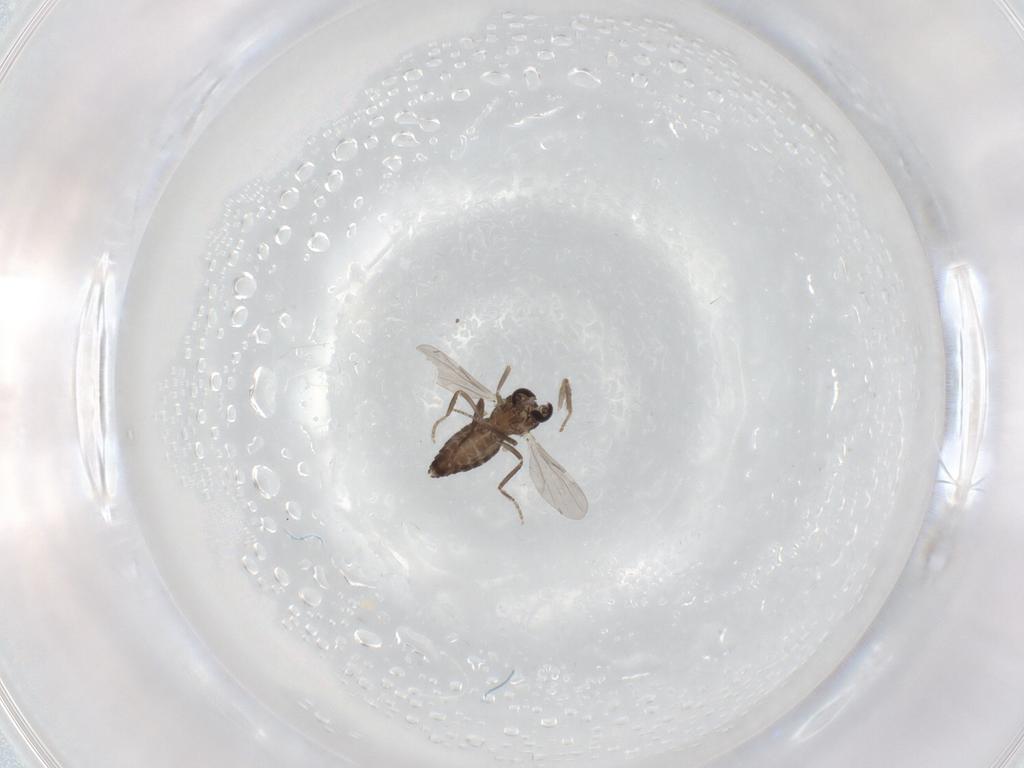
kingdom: Animalia
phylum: Arthropoda
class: Insecta
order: Diptera
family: Ceratopogonidae
